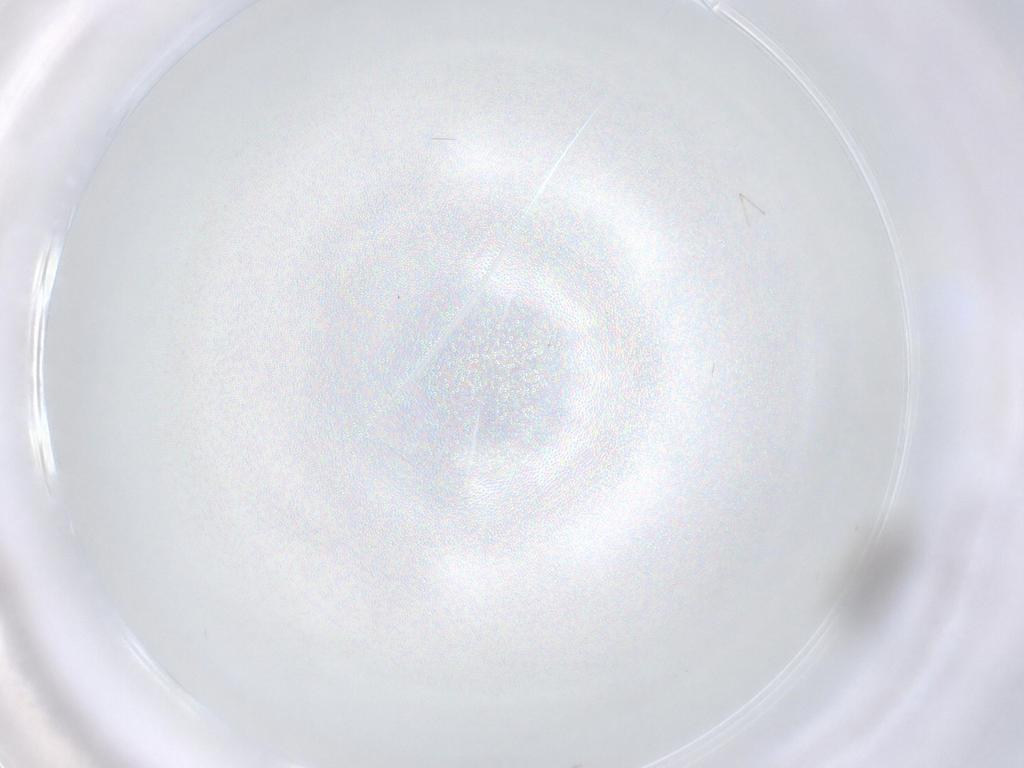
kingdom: Animalia
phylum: Arthropoda
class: Insecta
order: Diptera
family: Cecidomyiidae
